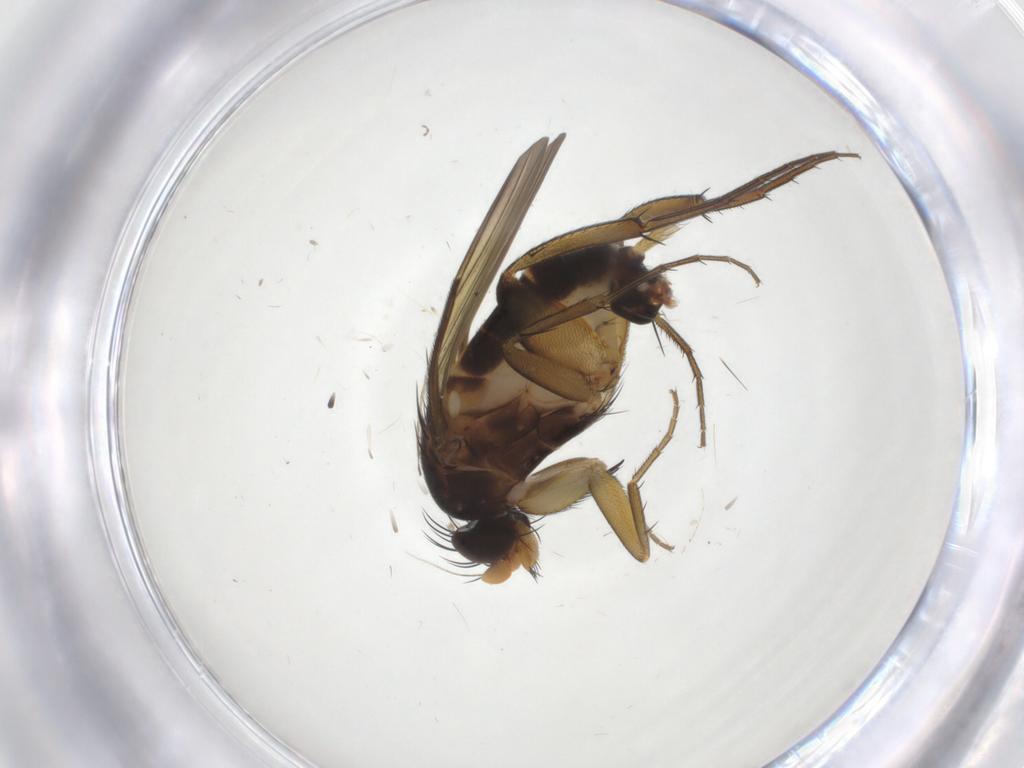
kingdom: Animalia
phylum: Arthropoda
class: Insecta
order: Diptera
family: Phoridae
